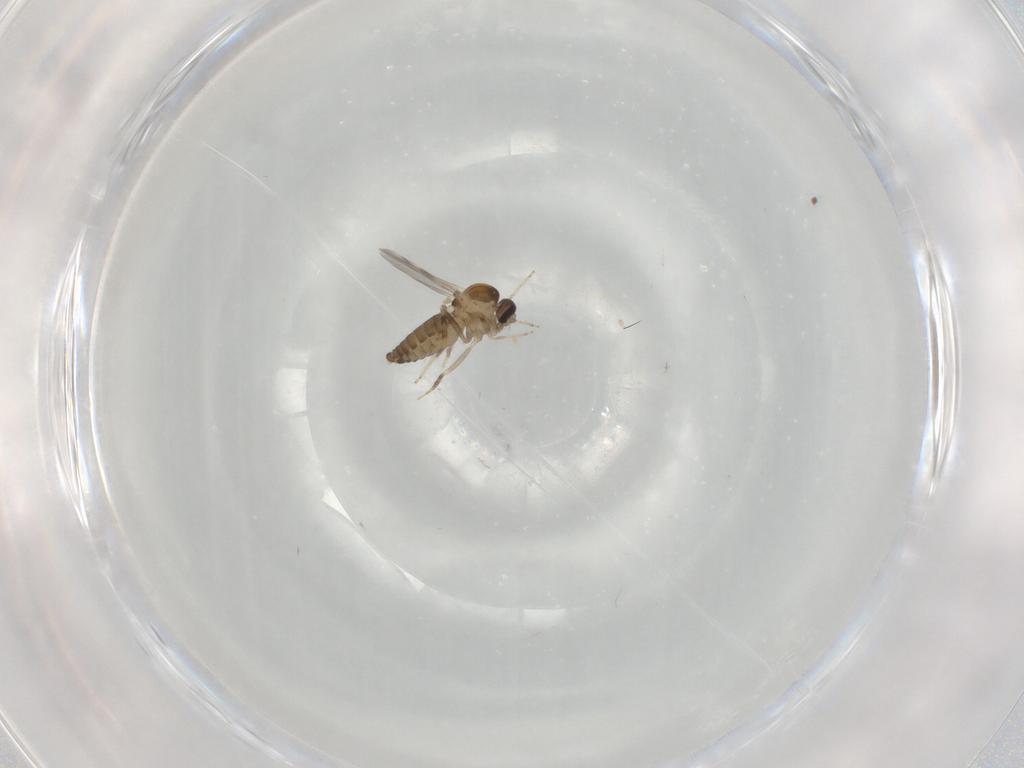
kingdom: Animalia
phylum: Arthropoda
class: Insecta
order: Diptera
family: Ceratopogonidae
